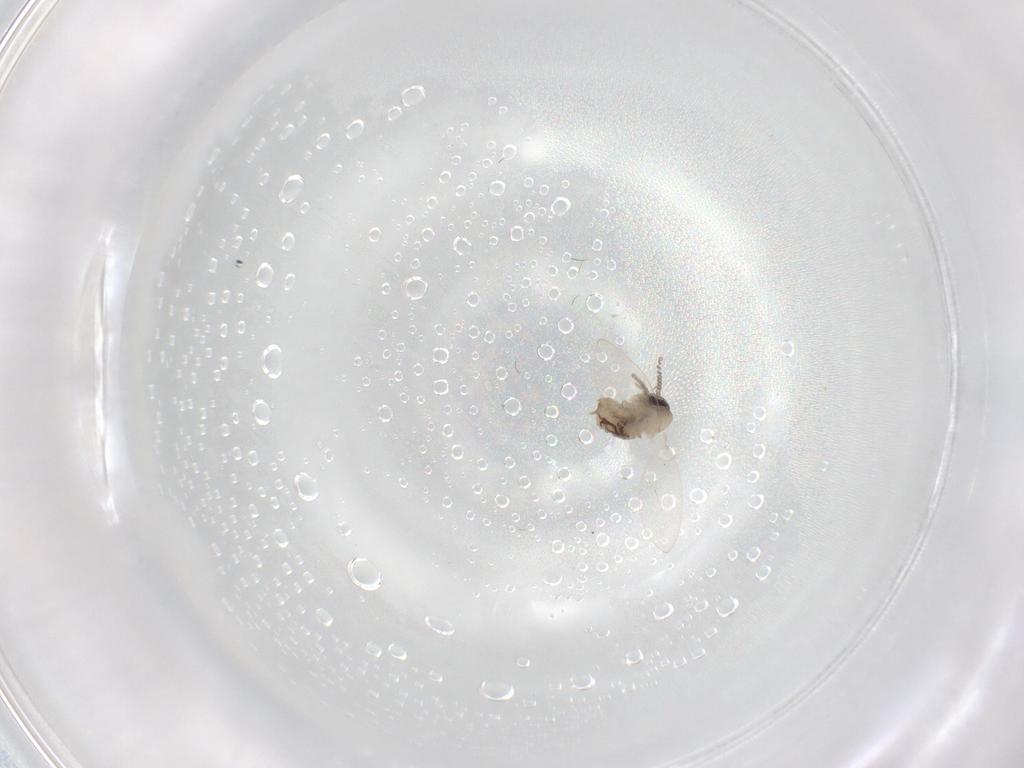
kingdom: Animalia
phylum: Arthropoda
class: Insecta
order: Diptera
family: Psychodidae
